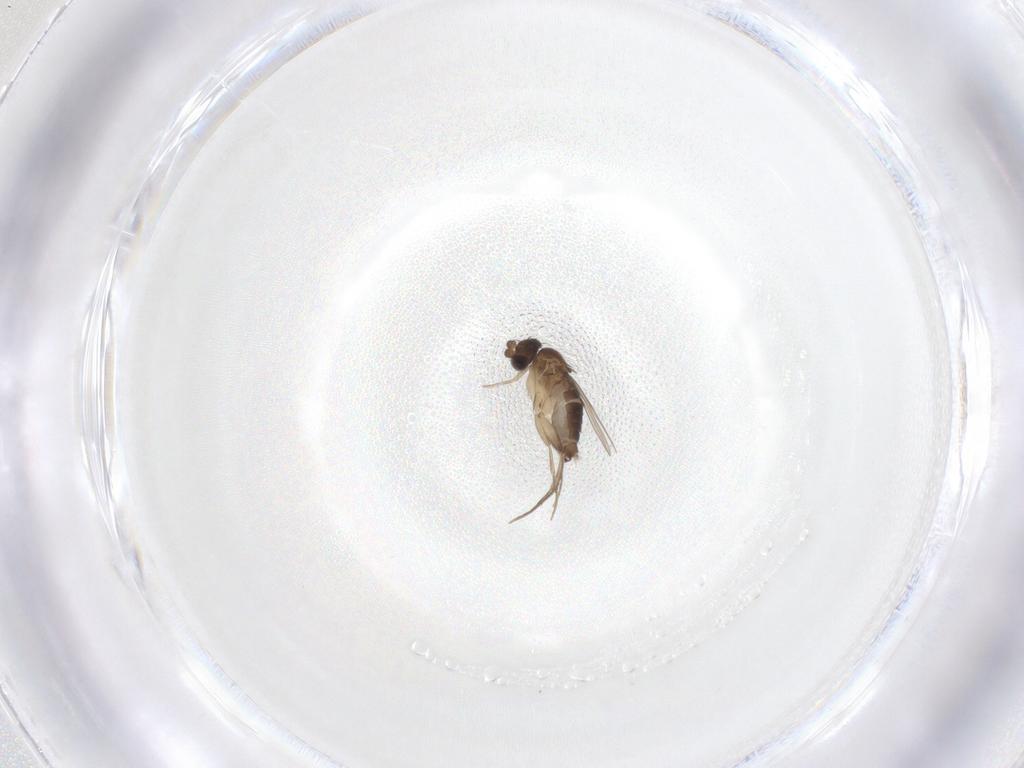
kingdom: Animalia
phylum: Arthropoda
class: Insecta
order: Diptera
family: Phoridae
